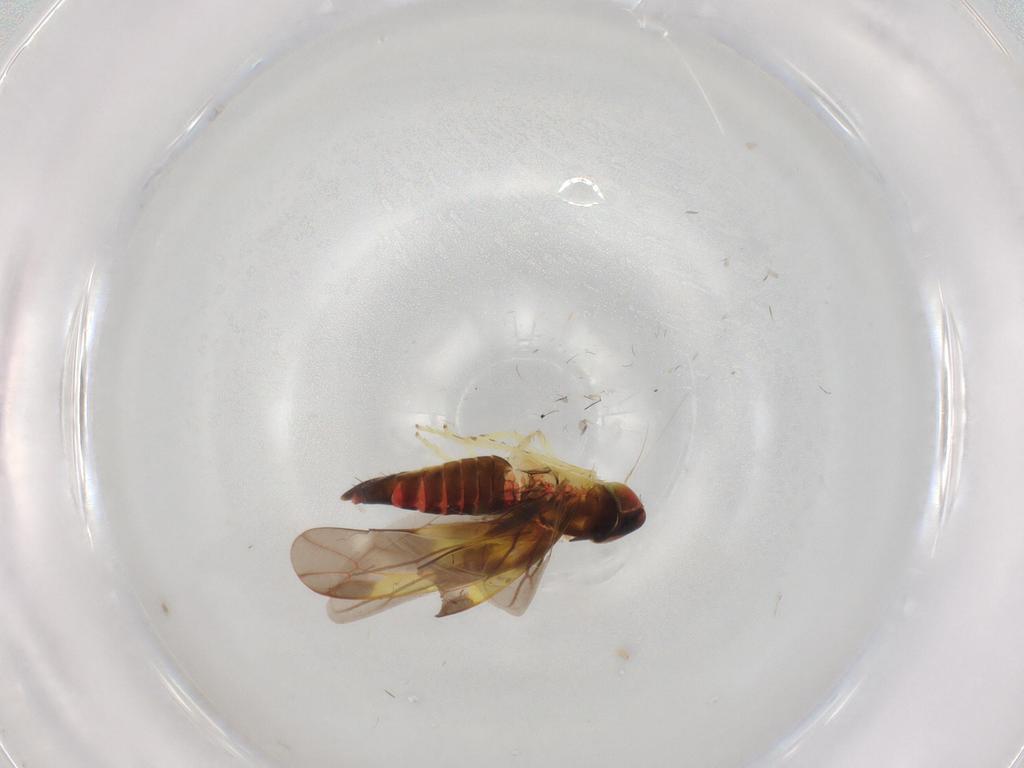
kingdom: Animalia
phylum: Arthropoda
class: Insecta
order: Hemiptera
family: Cicadellidae
